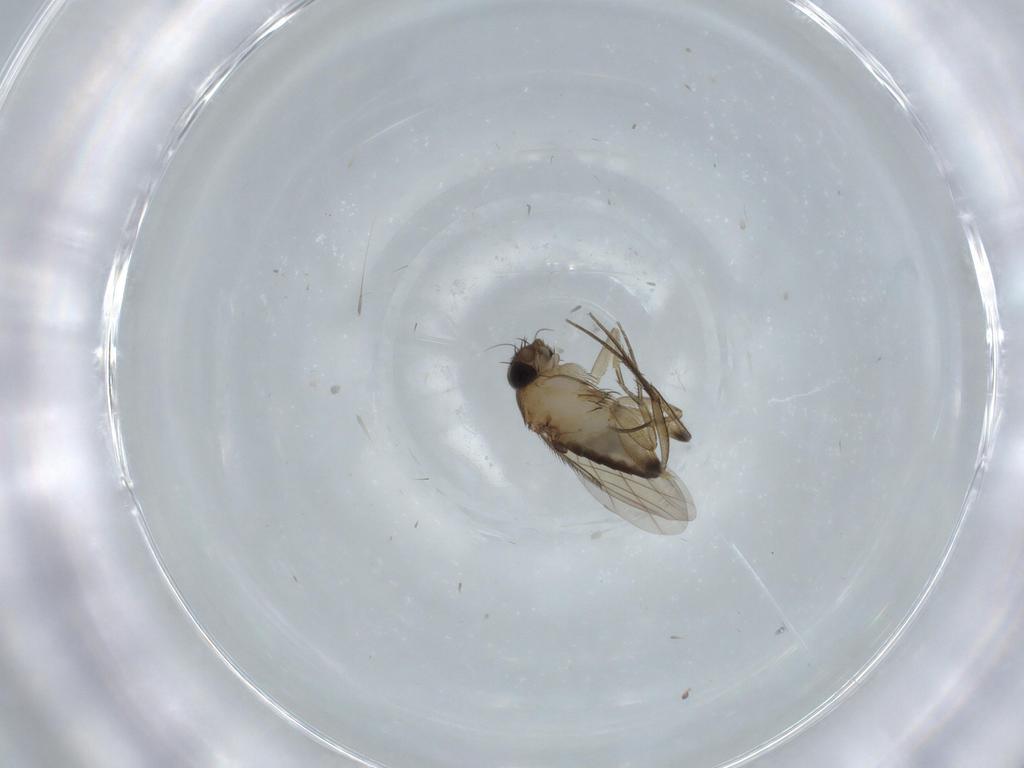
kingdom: Animalia
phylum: Arthropoda
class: Insecta
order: Diptera
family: Phoridae
